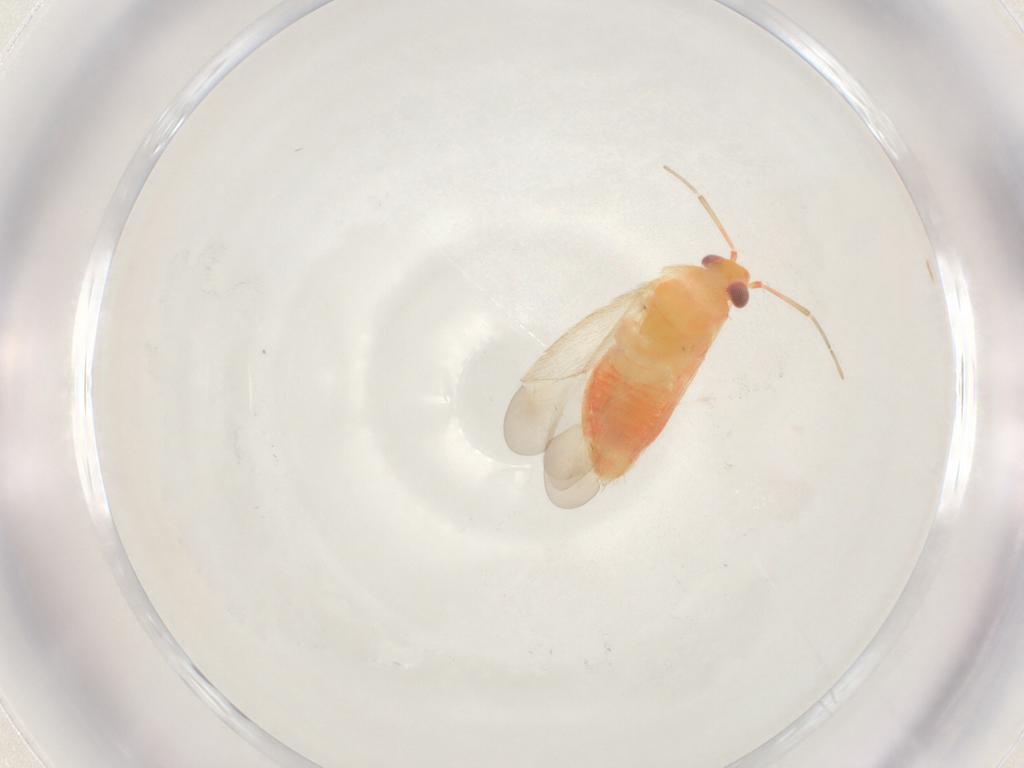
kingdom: Animalia
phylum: Arthropoda
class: Insecta
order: Hemiptera
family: Miridae
